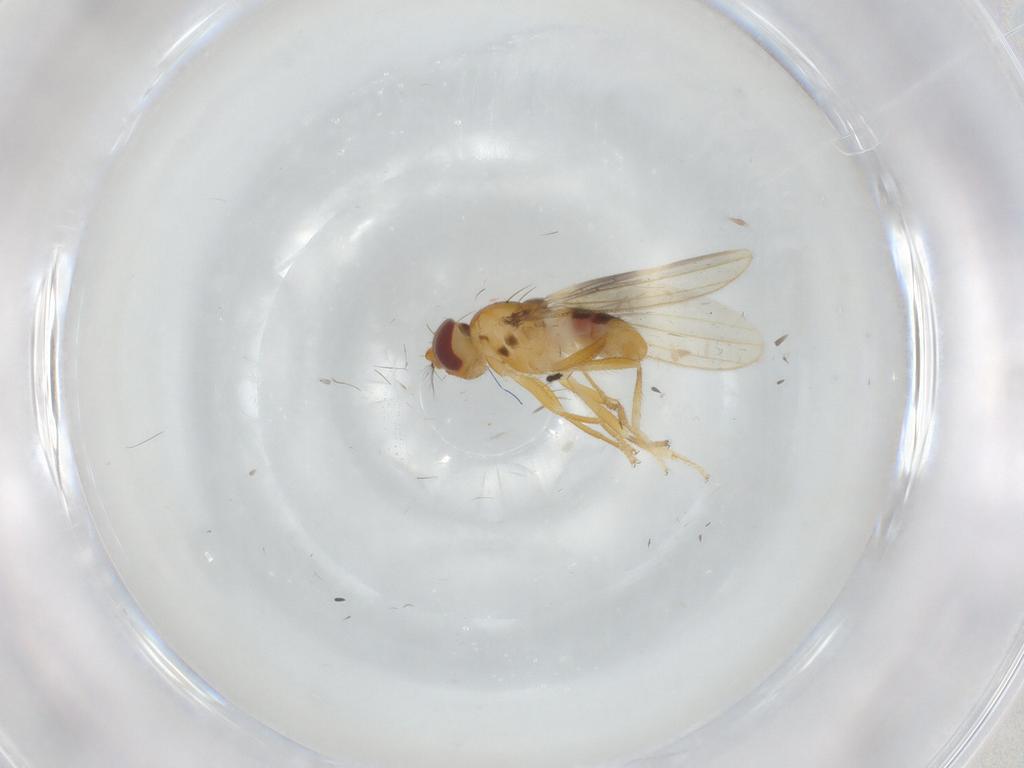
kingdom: Animalia
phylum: Arthropoda
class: Insecta
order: Diptera
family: Periscelididae
